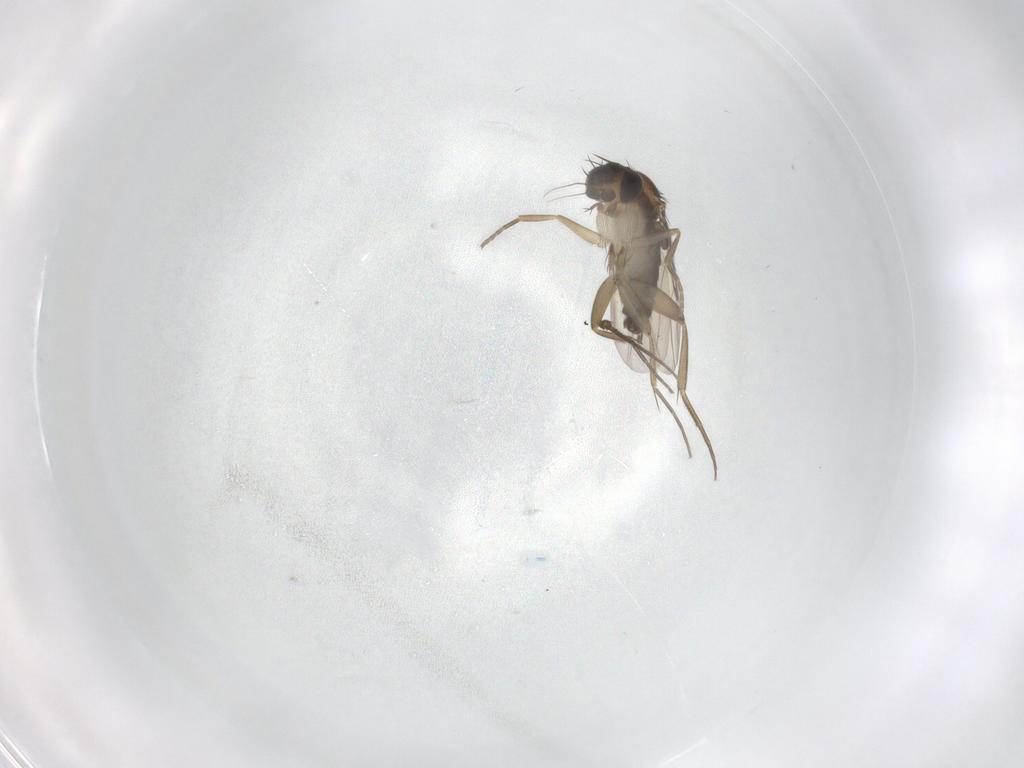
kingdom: Animalia
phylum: Arthropoda
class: Insecta
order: Diptera
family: Phoridae
